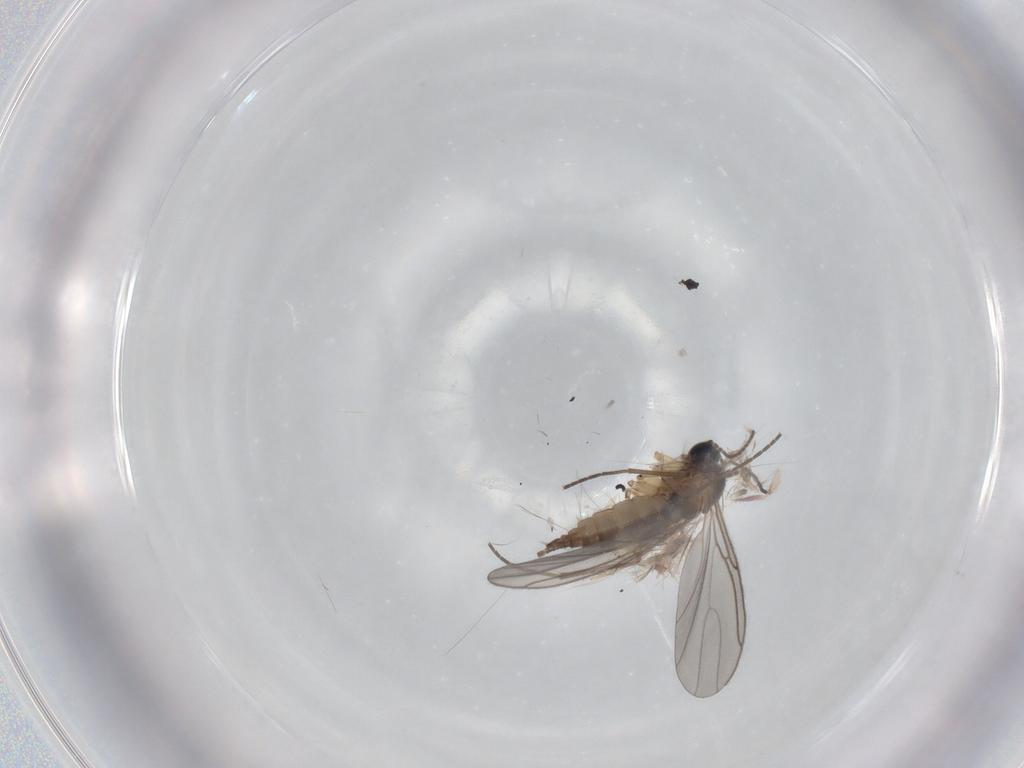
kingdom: Animalia
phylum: Arthropoda
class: Insecta
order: Diptera
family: Sciaridae
